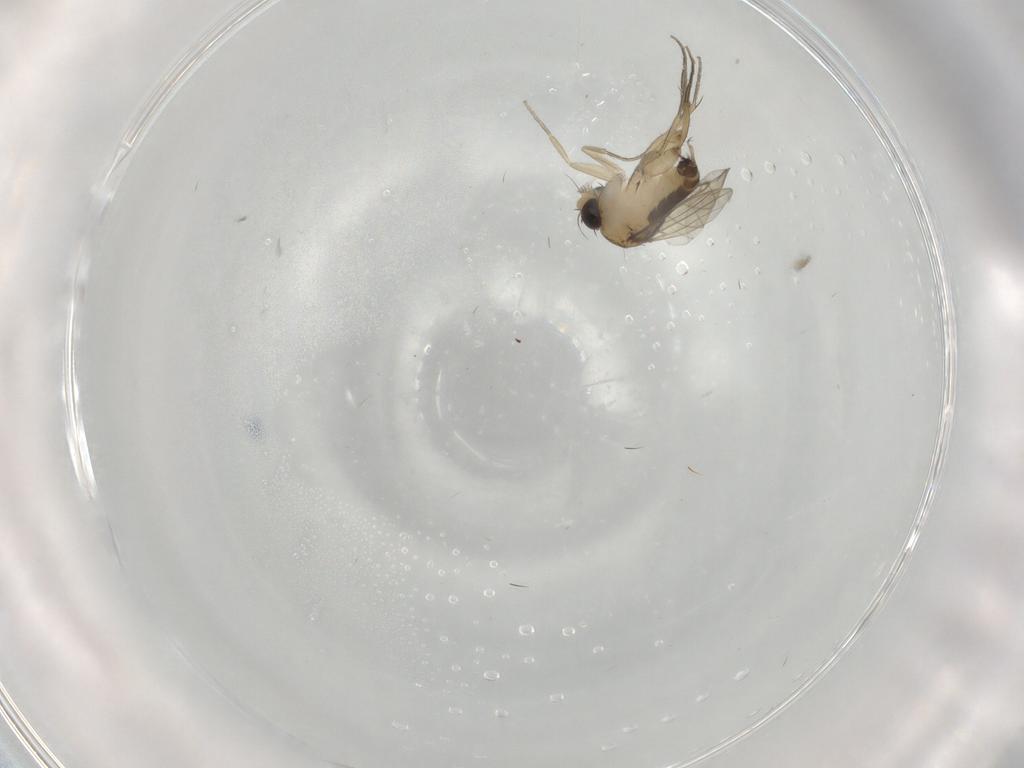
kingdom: Animalia
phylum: Arthropoda
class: Insecta
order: Diptera
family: Phoridae
